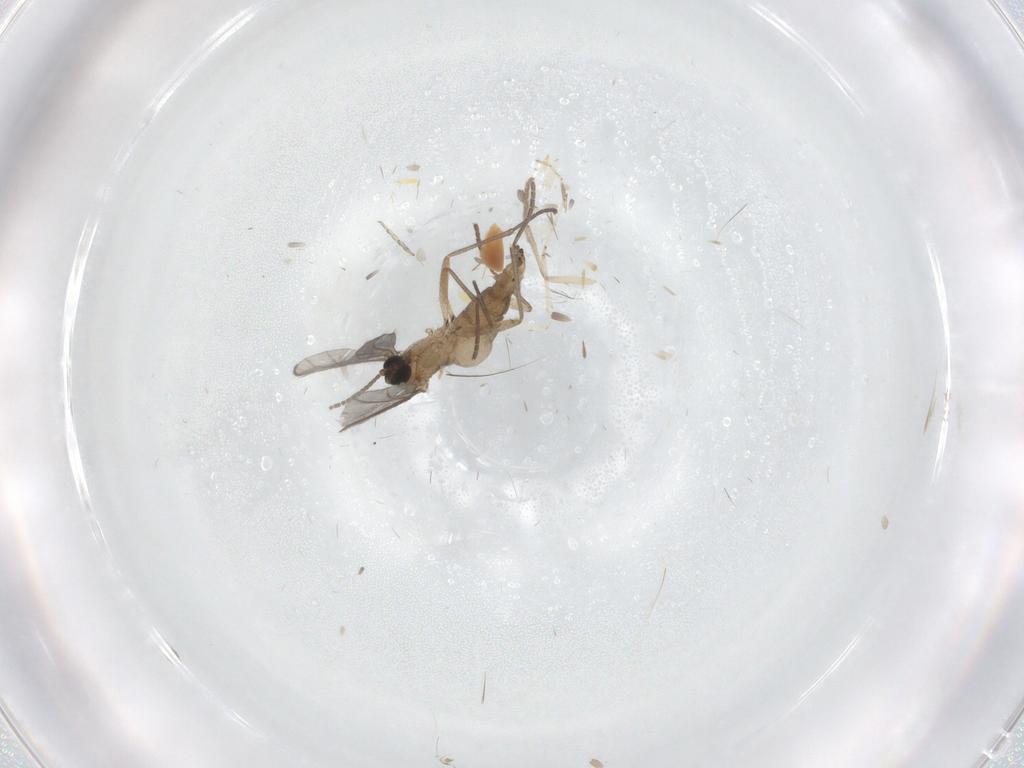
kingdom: Animalia
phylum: Arthropoda
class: Insecta
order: Diptera
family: Sciaridae
